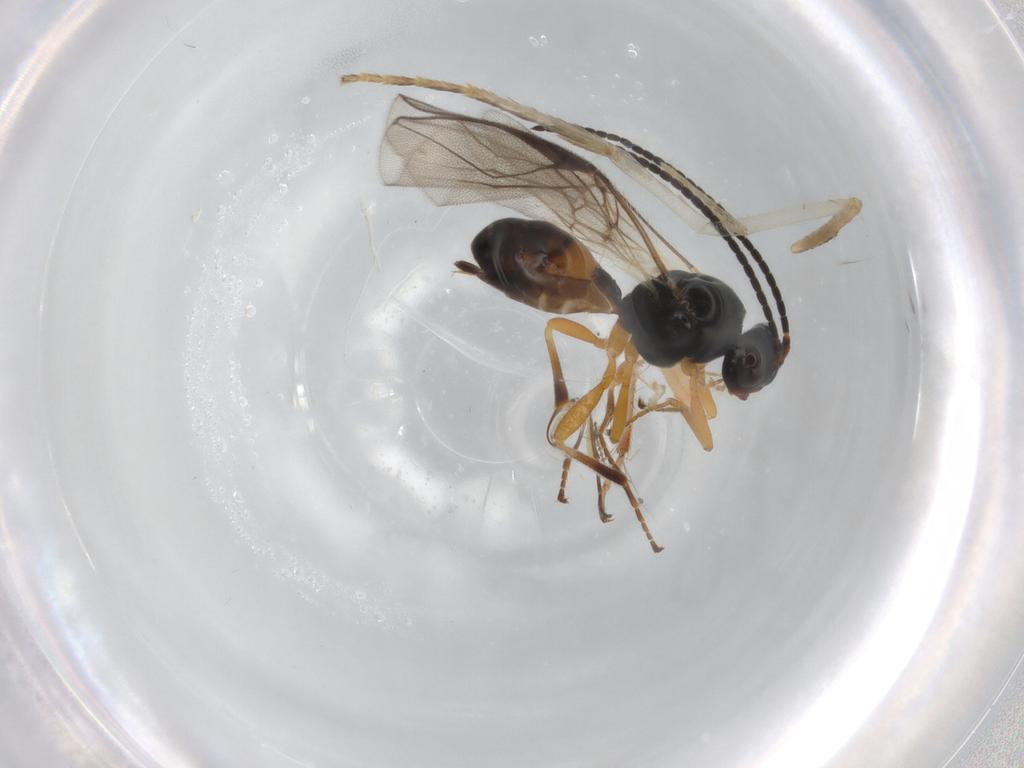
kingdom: Animalia
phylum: Arthropoda
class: Insecta
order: Hymenoptera
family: Braconidae
